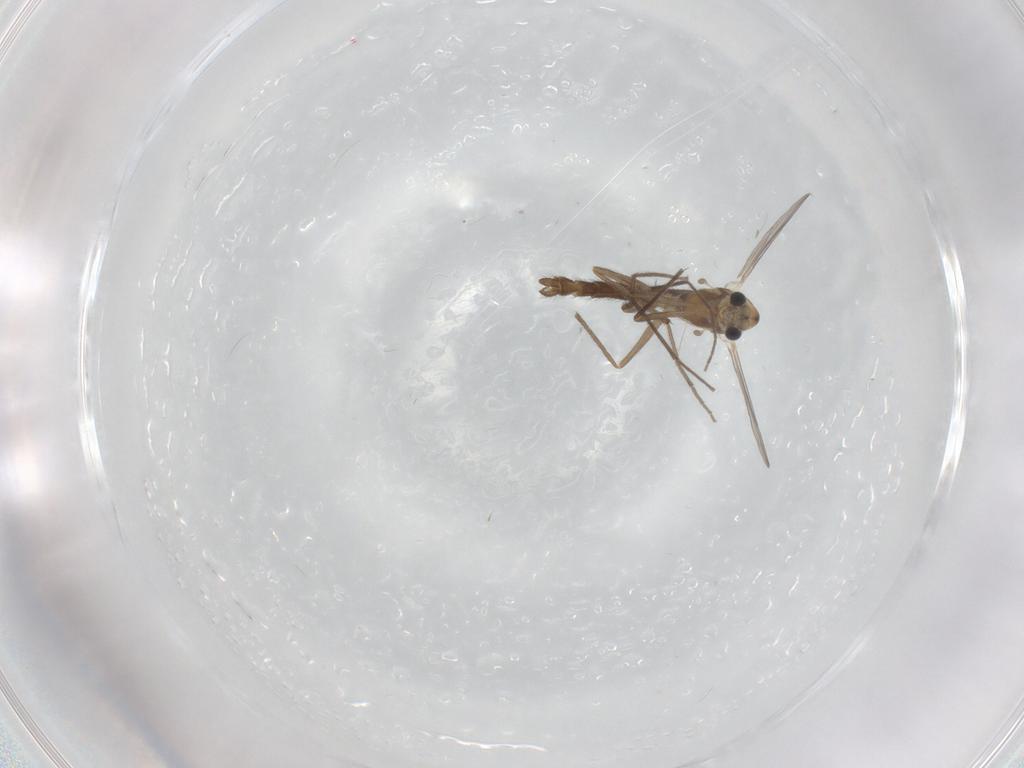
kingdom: Animalia
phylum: Arthropoda
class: Insecta
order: Diptera
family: Chironomidae
